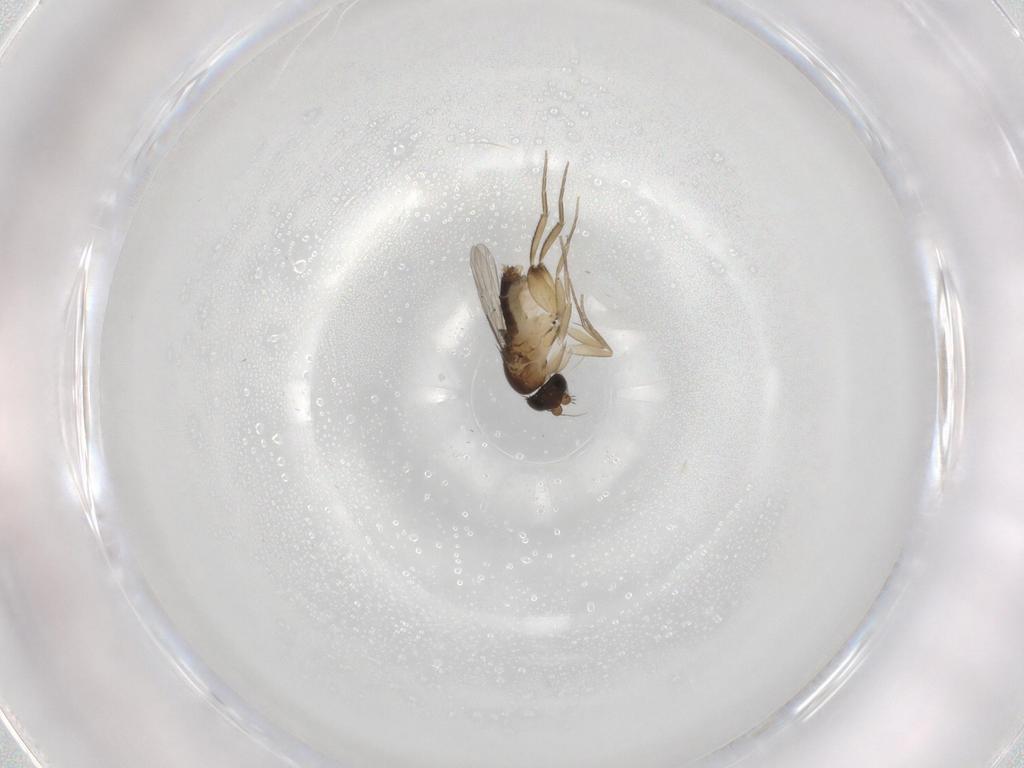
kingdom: Animalia
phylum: Arthropoda
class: Insecta
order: Diptera
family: Phoridae
